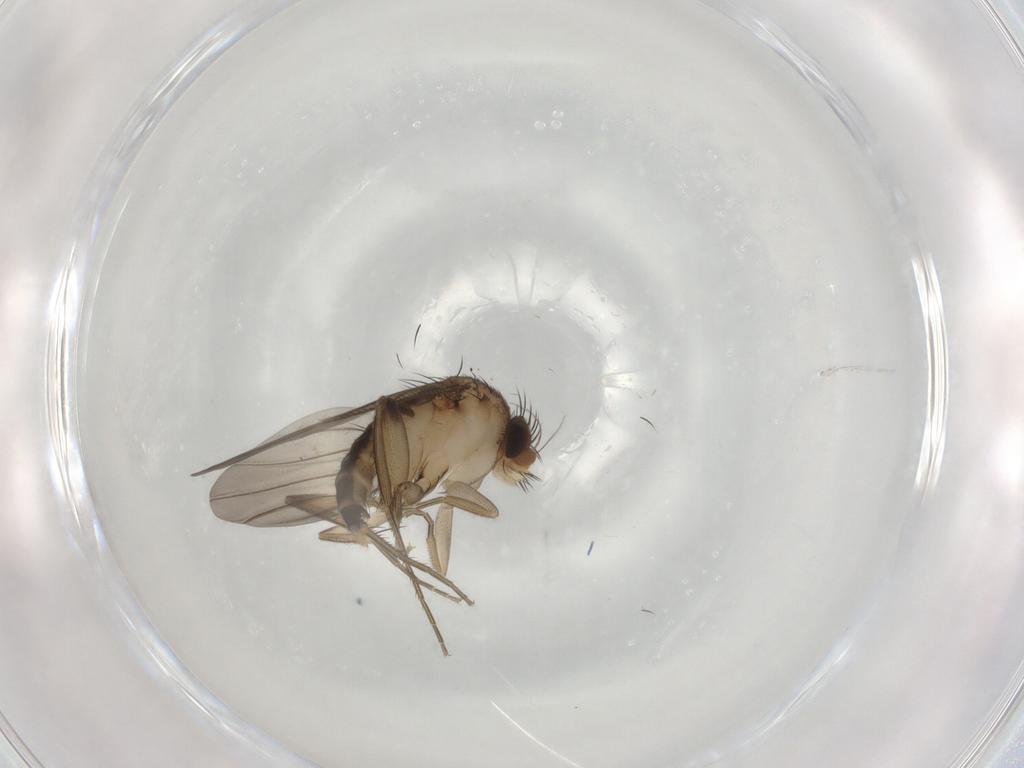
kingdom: Animalia
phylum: Arthropoda
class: Insecta
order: Diptera
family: Phoridae
